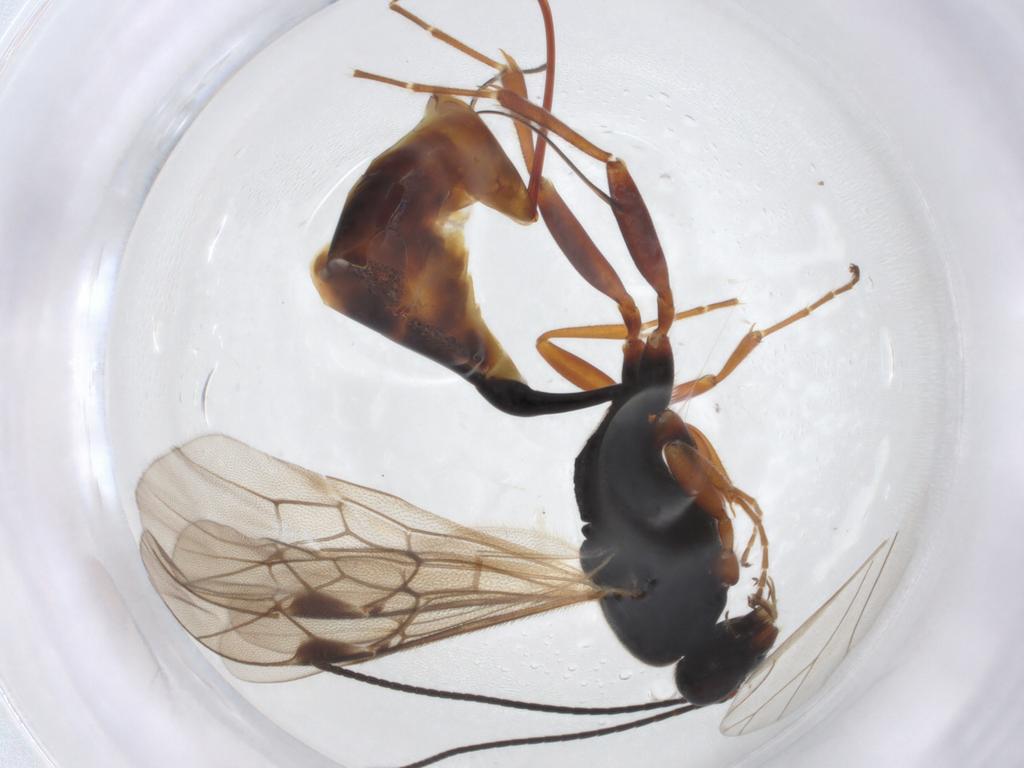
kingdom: Animalia
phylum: Arthropoda
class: Insecta
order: Hymenoptera
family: Ichneumonidae
